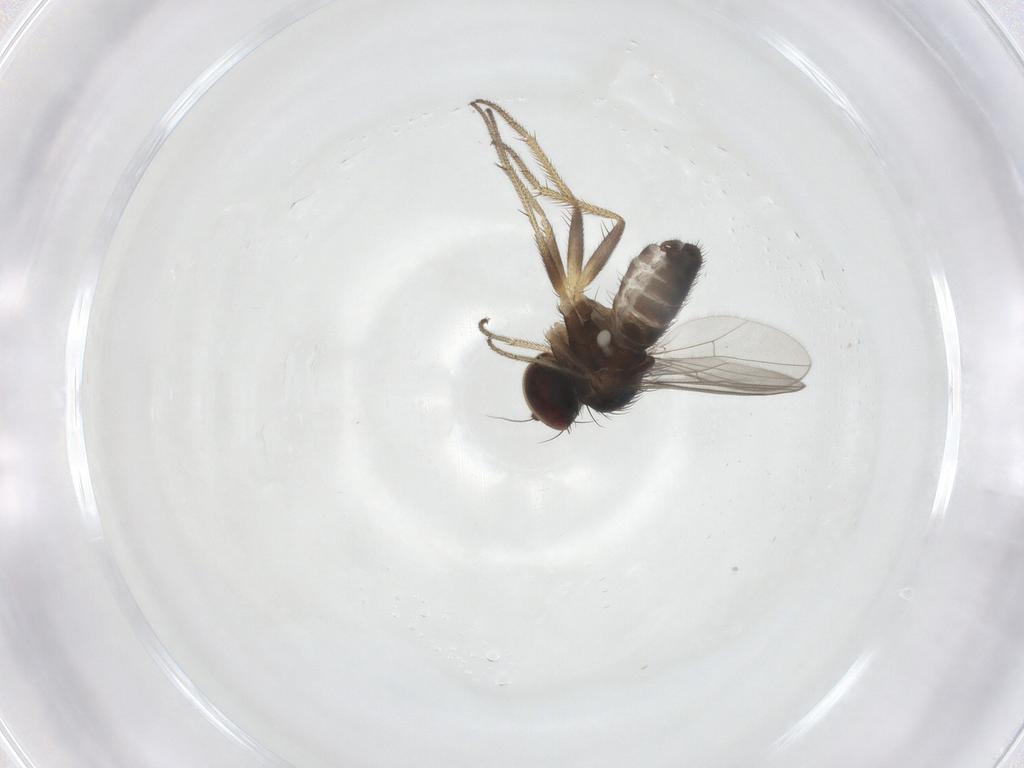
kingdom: Animalia
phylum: Arthropoda
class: Insecta
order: Diptera
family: Dolichopodidae
